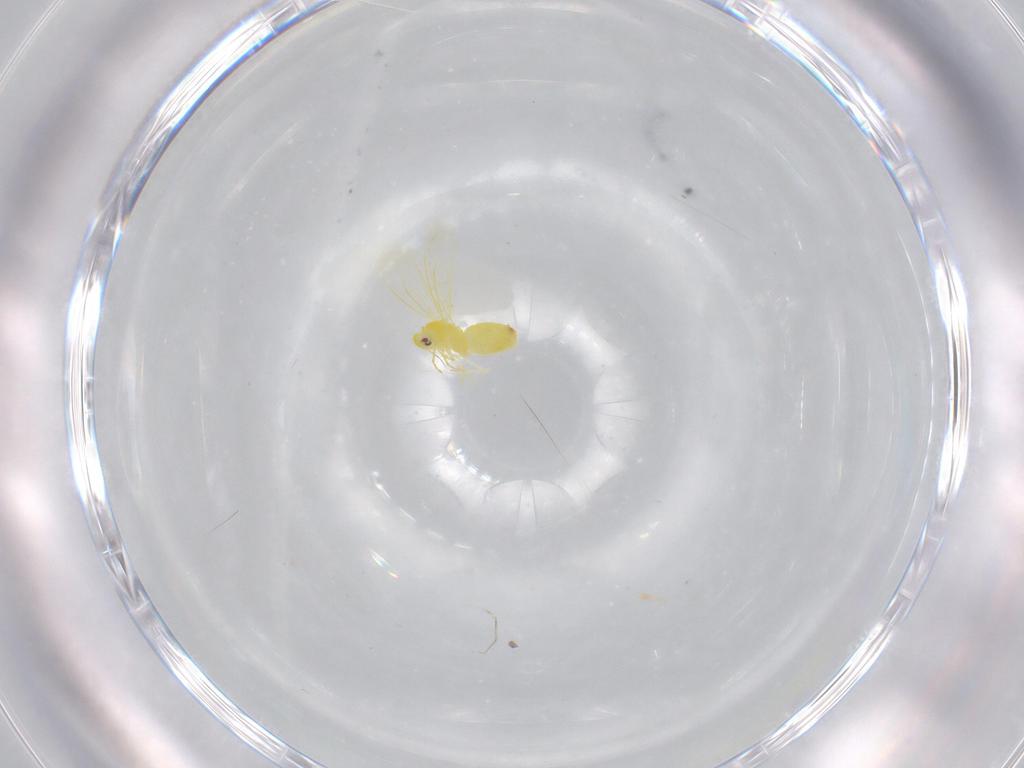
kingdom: Animalia
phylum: Arthropoda
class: Insecta
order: Hemiptera
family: Aleyrodidae
